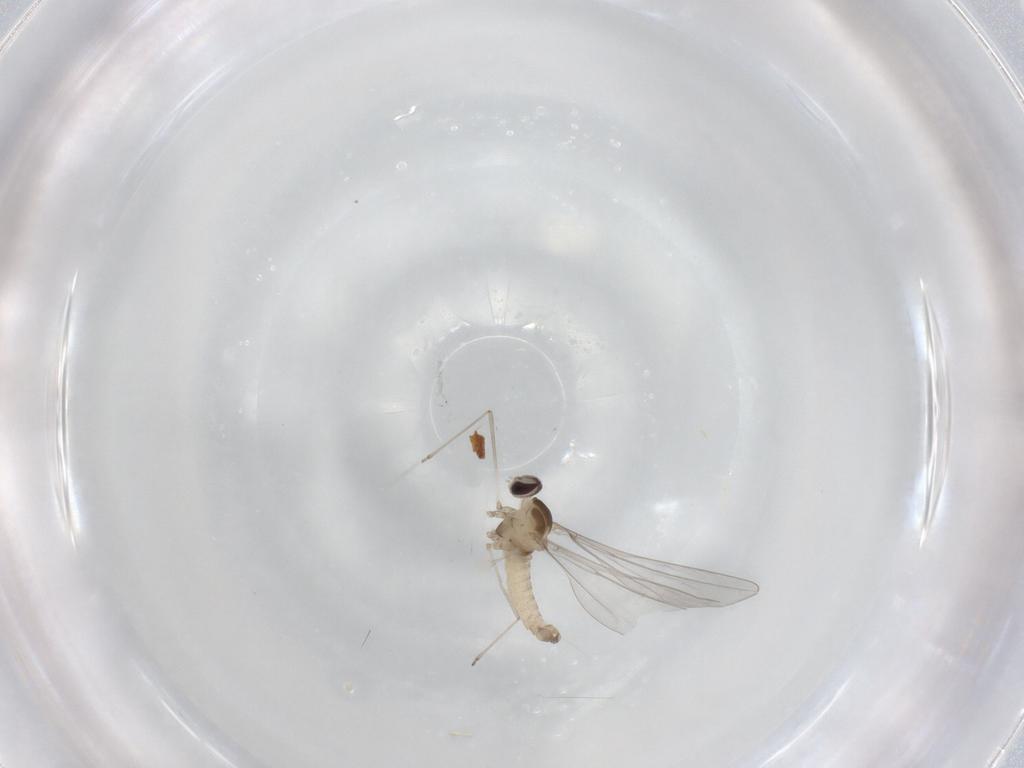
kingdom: Animalia
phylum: Arthropoda
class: Insecta
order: Diptera
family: Cecidomyiidae
